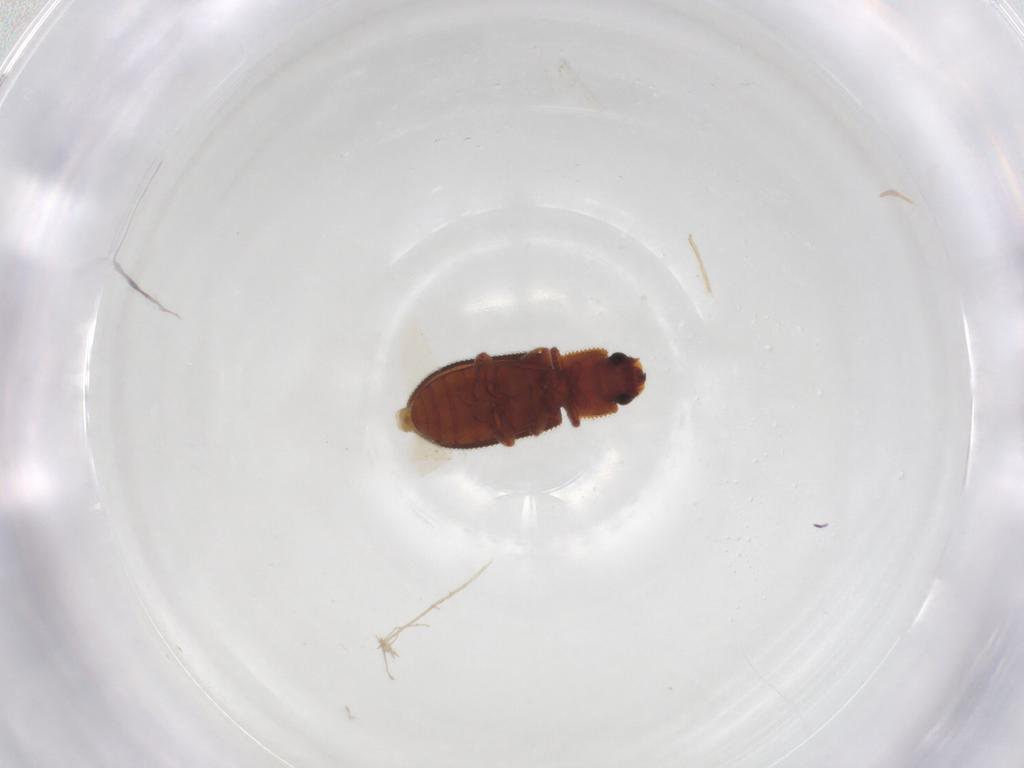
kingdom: Animalia
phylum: Arthropoda
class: Insecta
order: Coleoptera
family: Zopheridae
